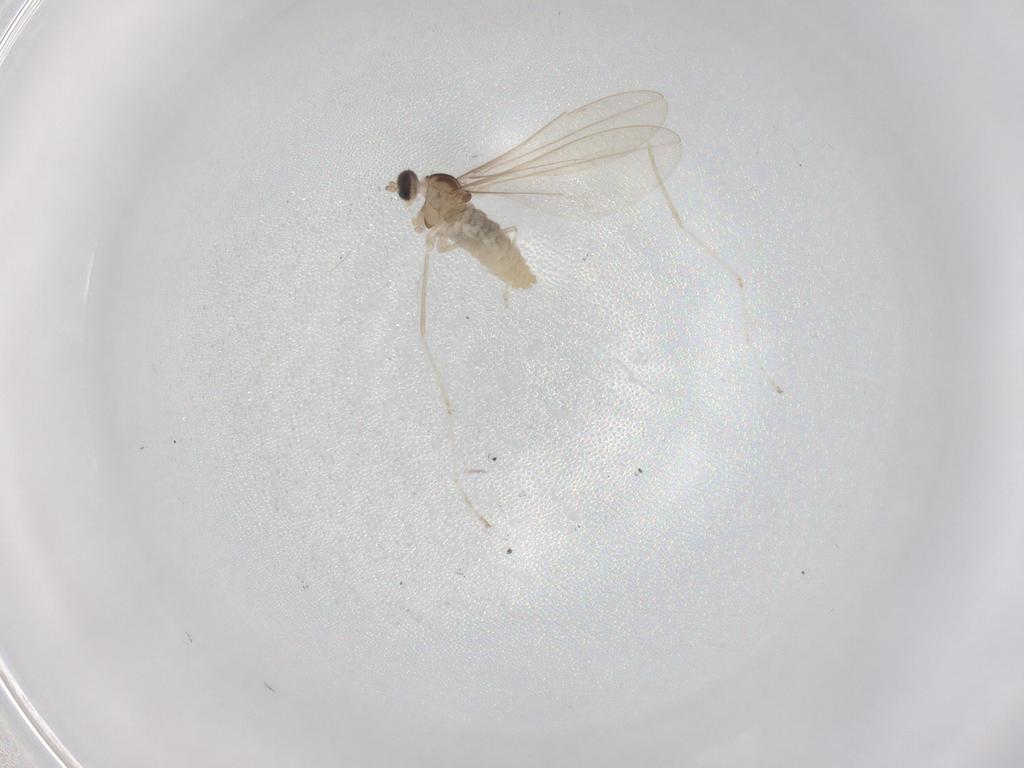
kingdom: Animalia
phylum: Arthropoda
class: Insecta
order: Diptera
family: Cecidomyiidae
